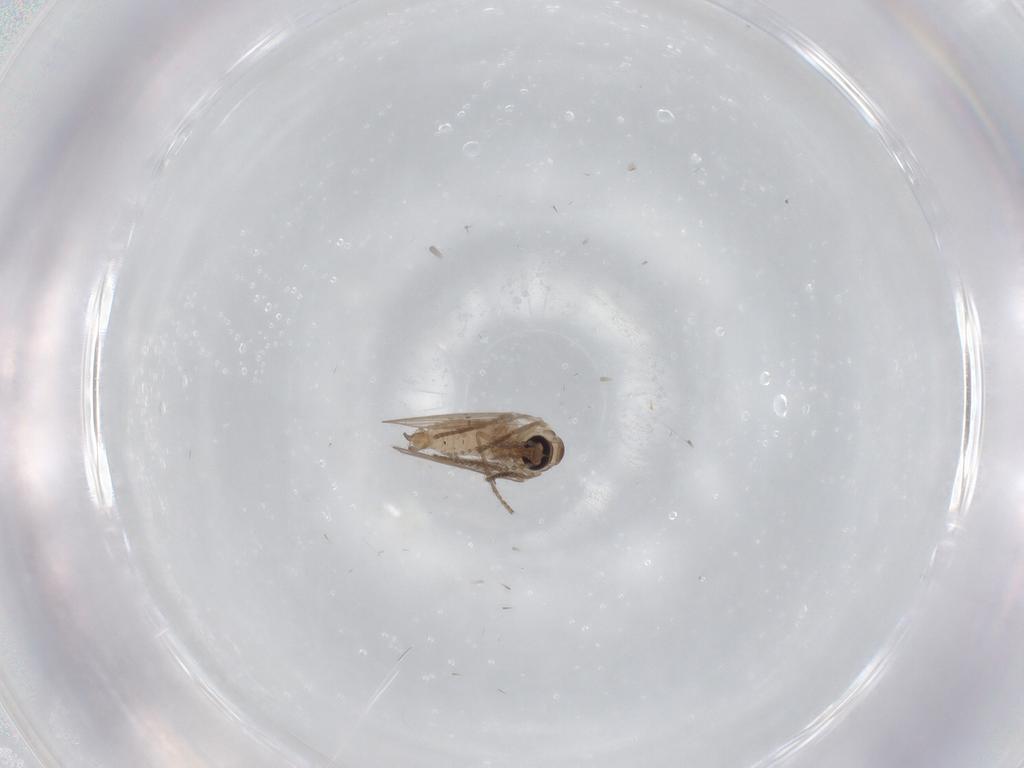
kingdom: Animalia
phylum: Arthropoda
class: Insecta
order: Diptera
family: Psychodidae
